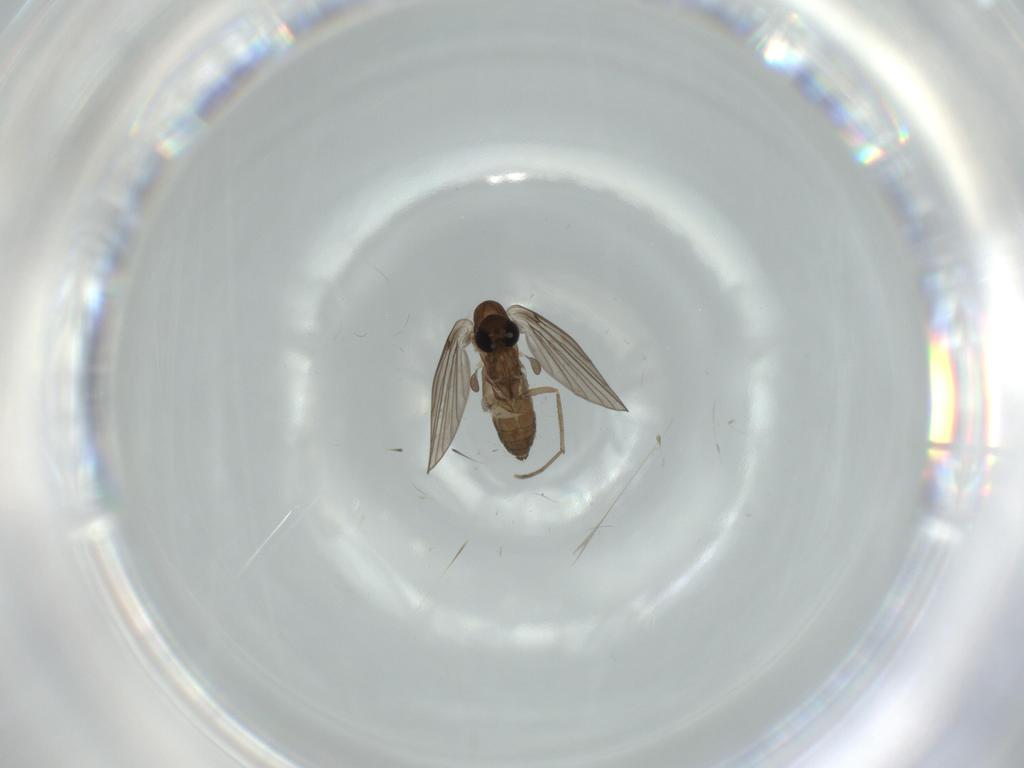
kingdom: Animalia
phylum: Arthropoda
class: Insecta
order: Diptera
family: Psychodidae
